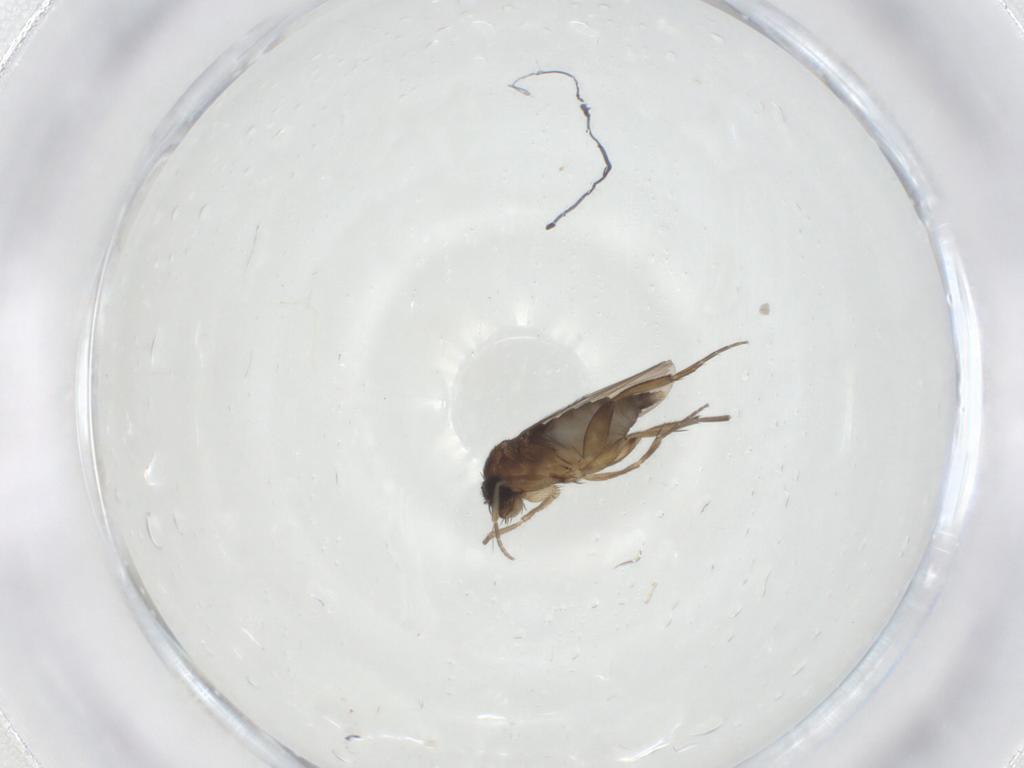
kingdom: Animalia
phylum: Arthropoda
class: Insecta
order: Diptera
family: Phoridae
